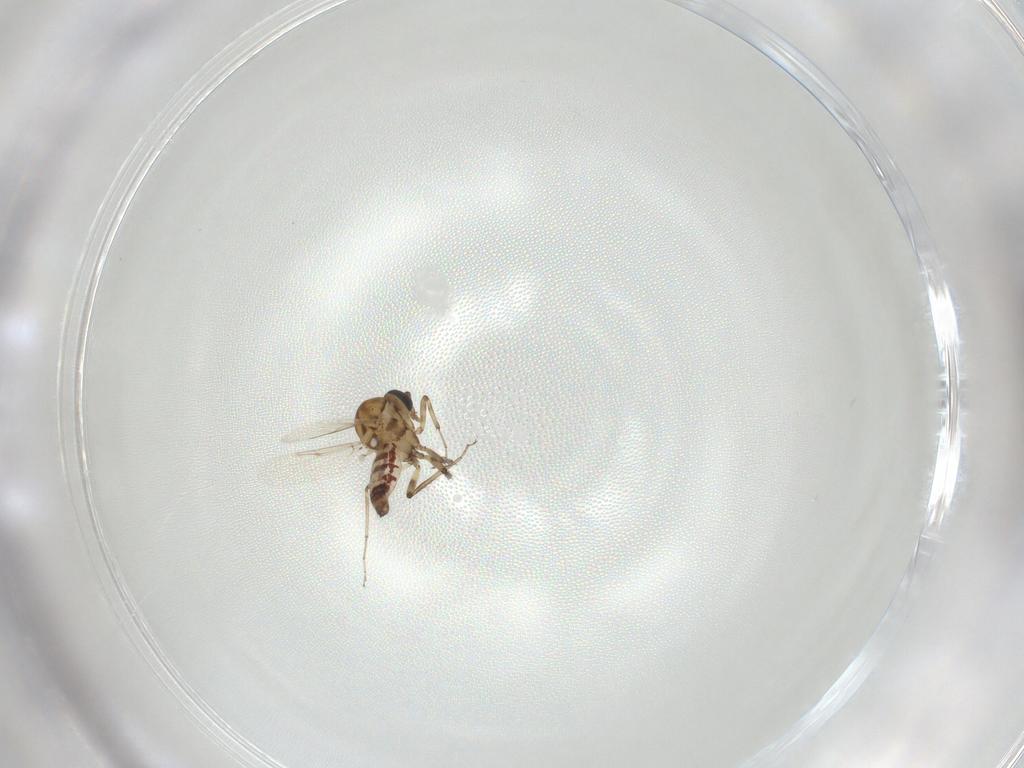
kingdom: Animalia
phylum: Arthropoda
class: Insecta
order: Diptera
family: Ceratopogonidae
